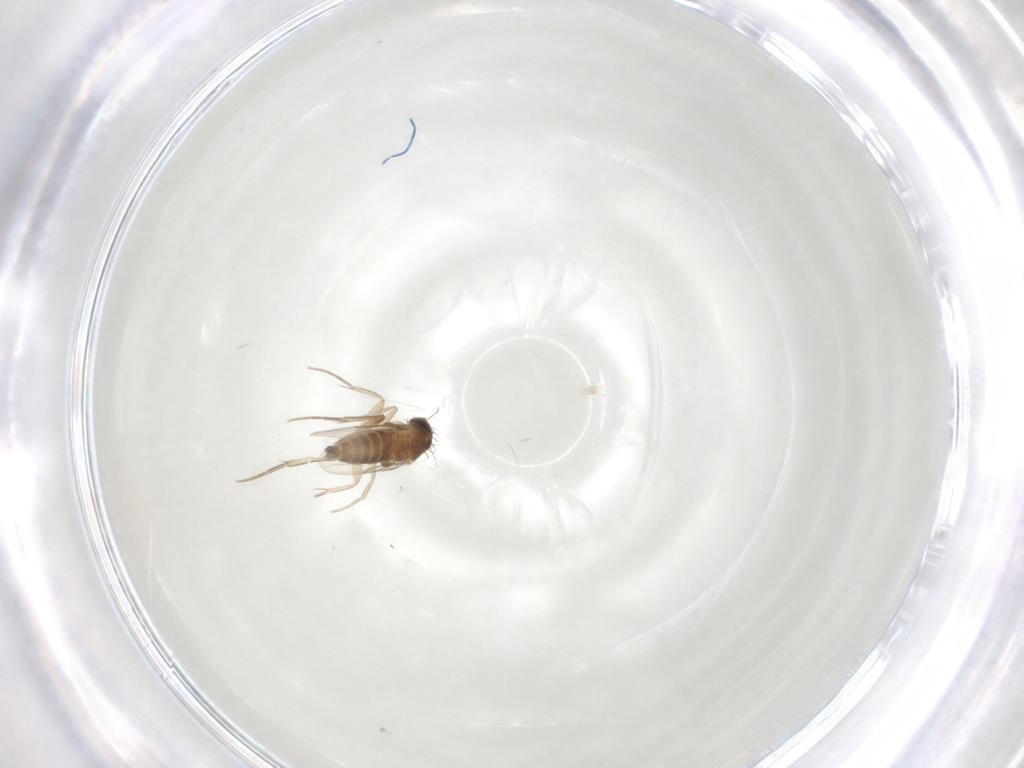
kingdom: Animalia
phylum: Arthropoda
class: Insecta
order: Diptera
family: Phoridae
